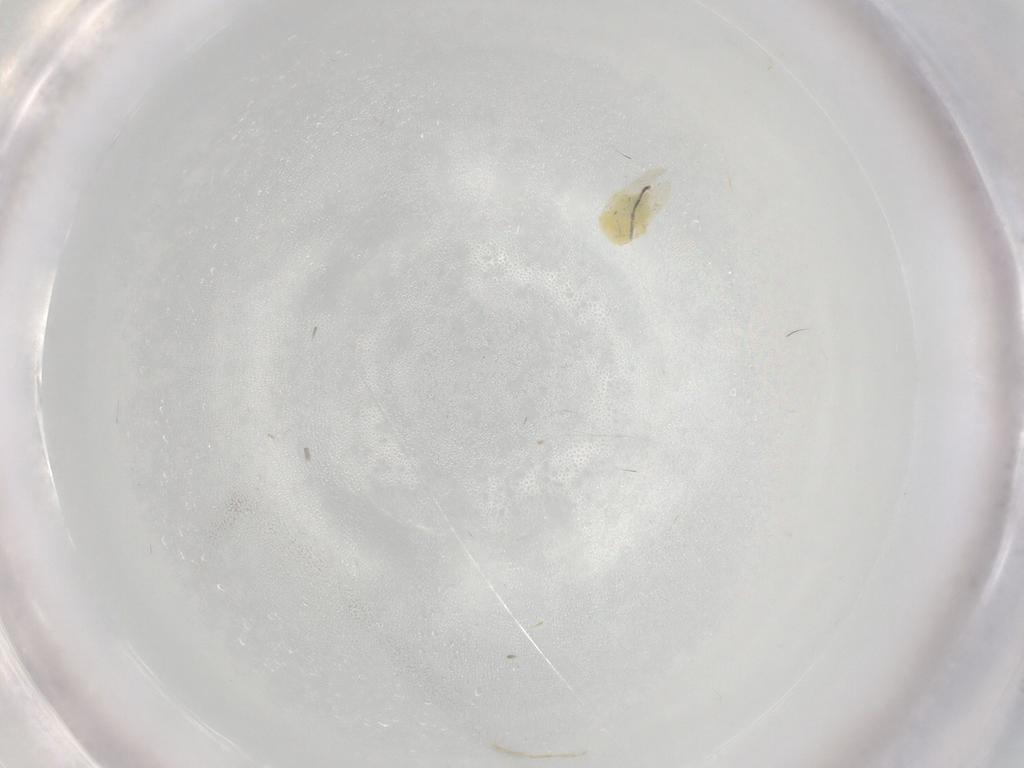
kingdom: Animalia
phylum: Arthropoda
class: Insecta
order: Hemiptera
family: Aleyrodidae
